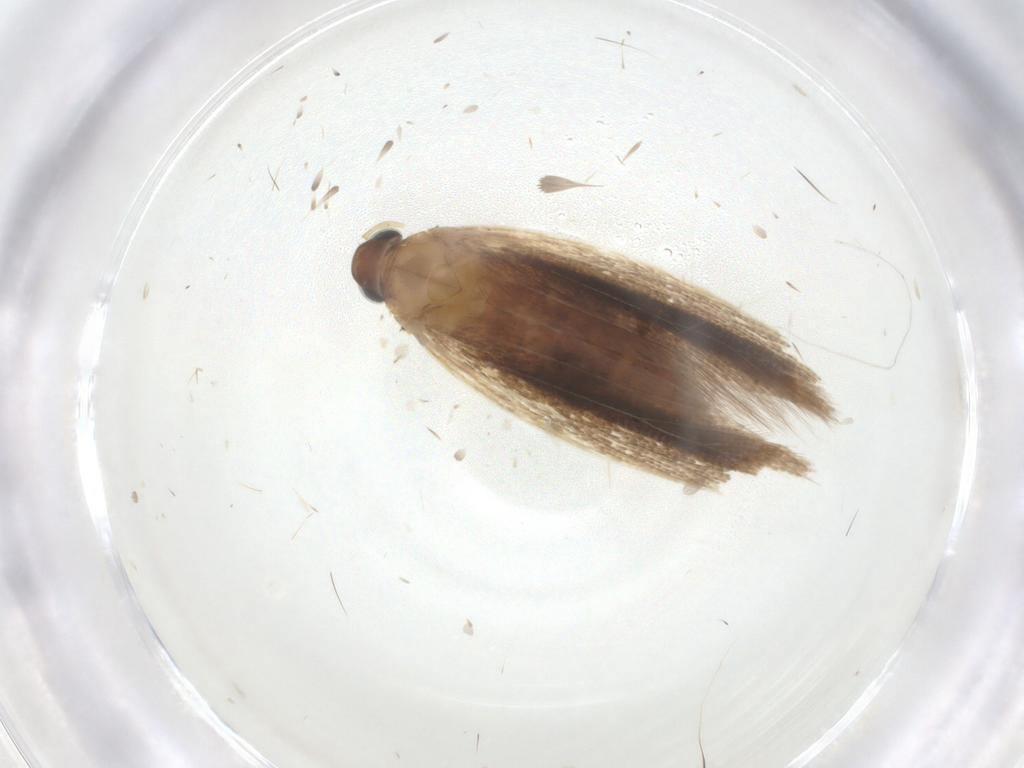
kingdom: Animalia
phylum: Arthropoda
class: Insecta
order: Lepidoptera
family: Gelechiidae
